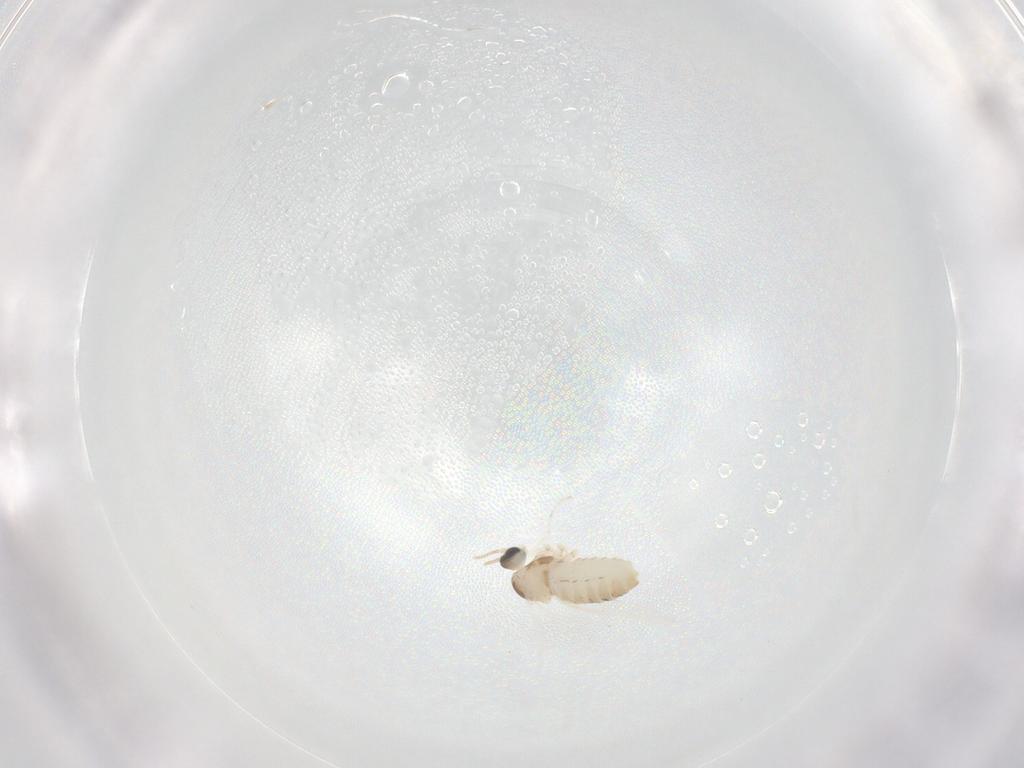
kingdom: Animalia
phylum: Arthropoda
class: Insecta
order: Diptera
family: Cecidomyiidae
